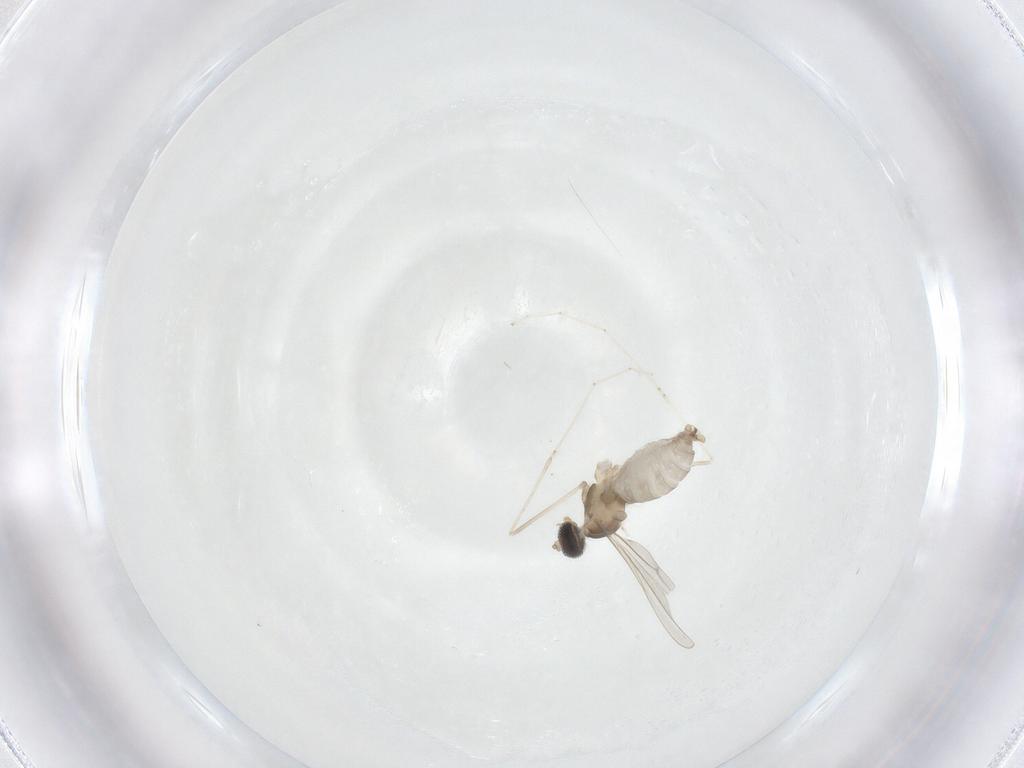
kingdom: Animalia
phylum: Arthropoda
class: Insecta
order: Diptera
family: Cecidomyiidae
